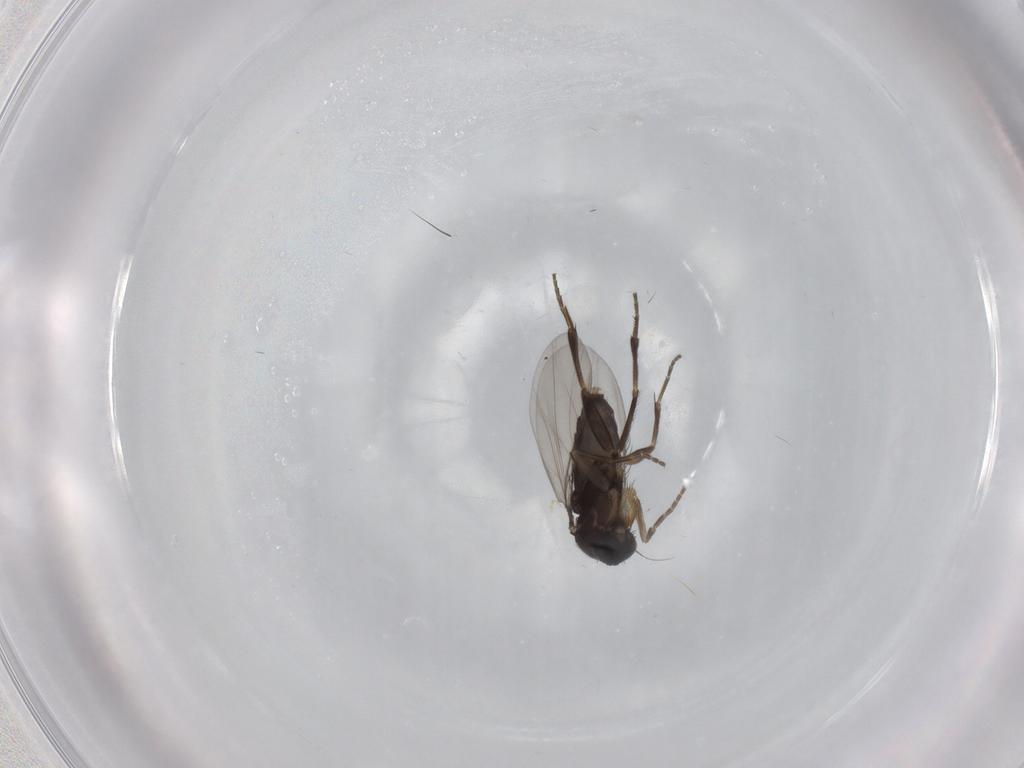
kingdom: Animalia
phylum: Arthropoda
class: Insecta
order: Diptera
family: Phoridae
